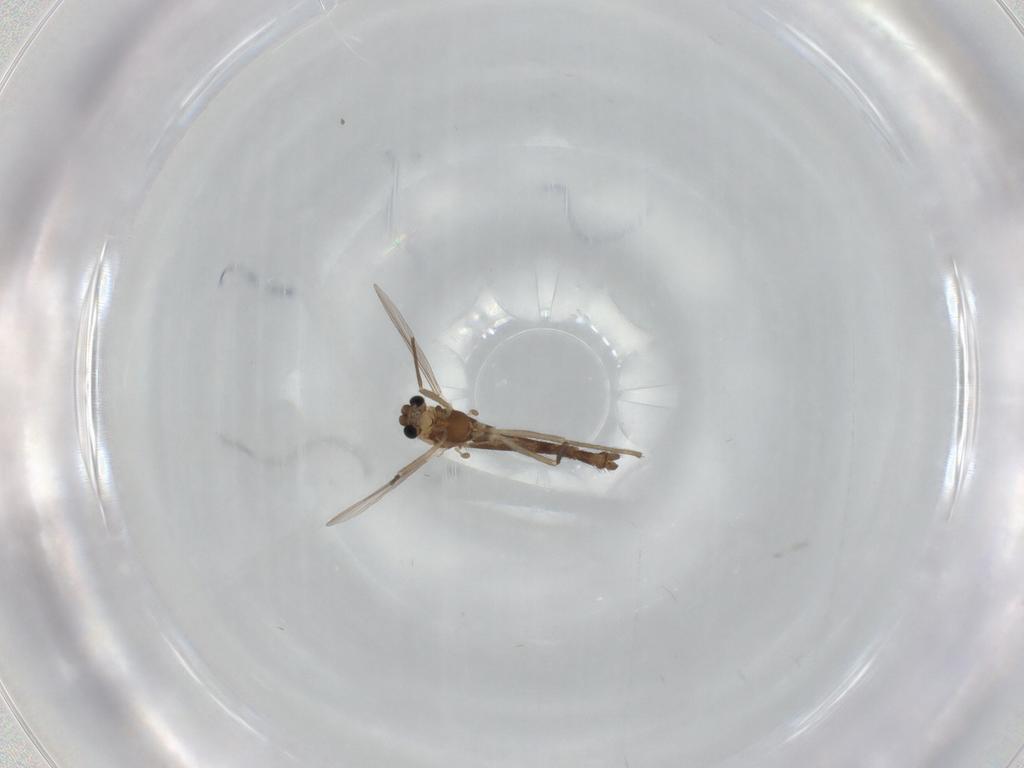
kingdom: Animalia
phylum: Arthropoda
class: Insecta
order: Diptera
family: Chironomidae
